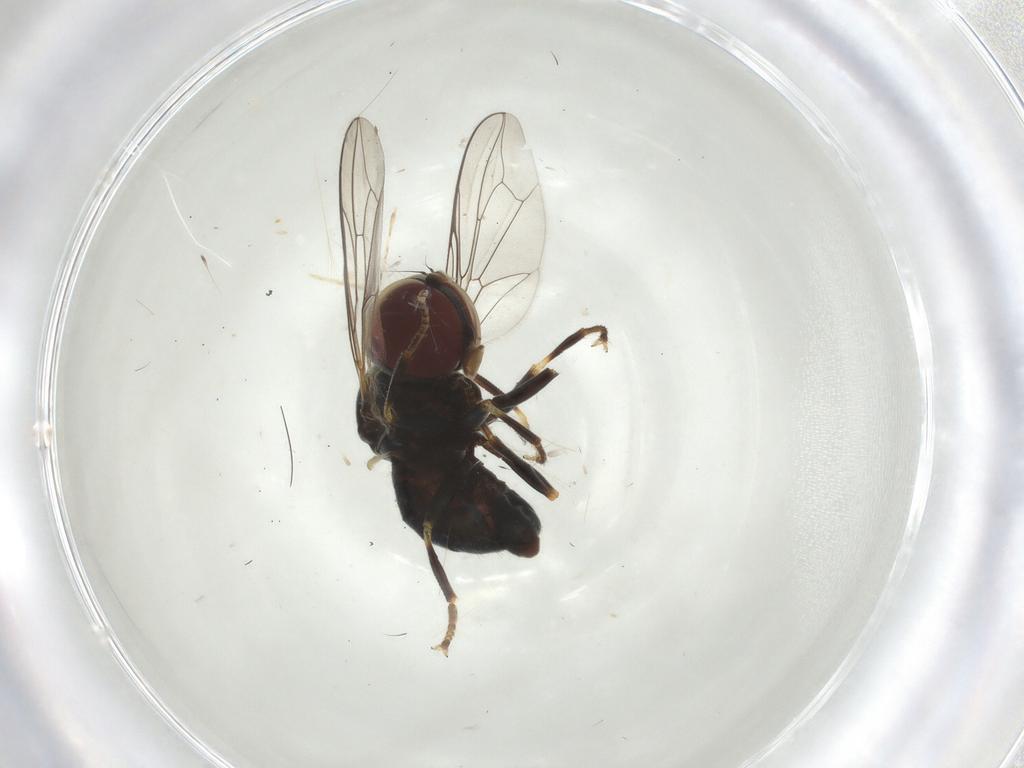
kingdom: Animalia
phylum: Arthropoda
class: Insecta
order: Diptera
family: Pipunculidae
